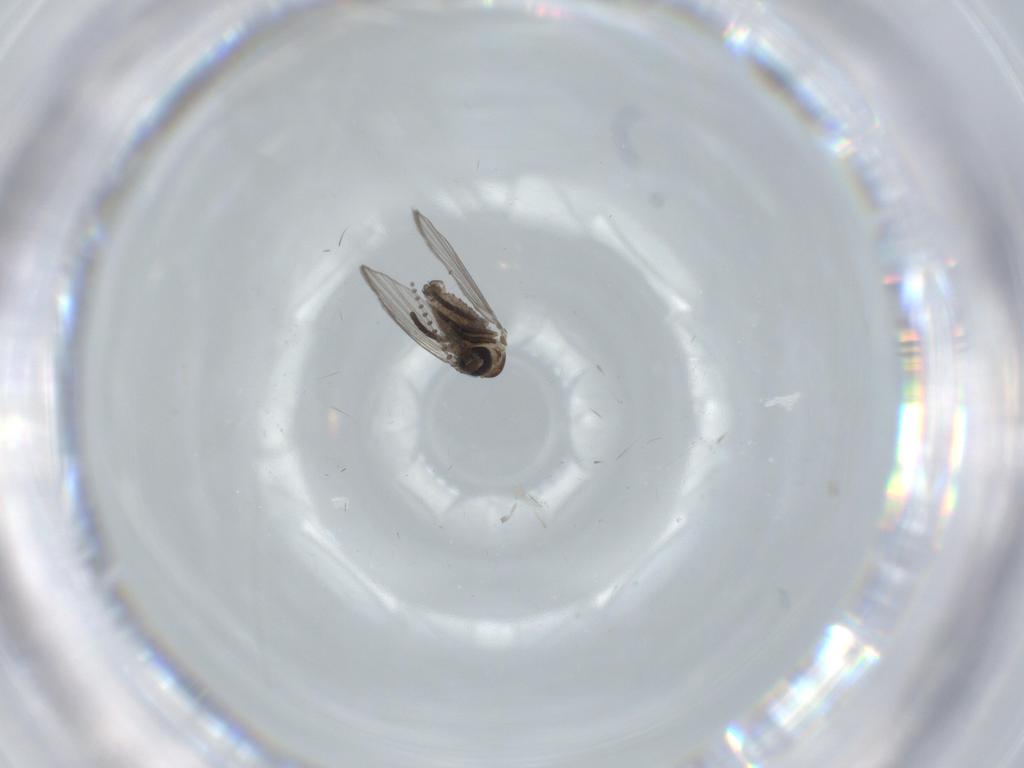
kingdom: Animalia
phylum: Arthropoda
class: Insecta
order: Diptera
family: Psychodidae
